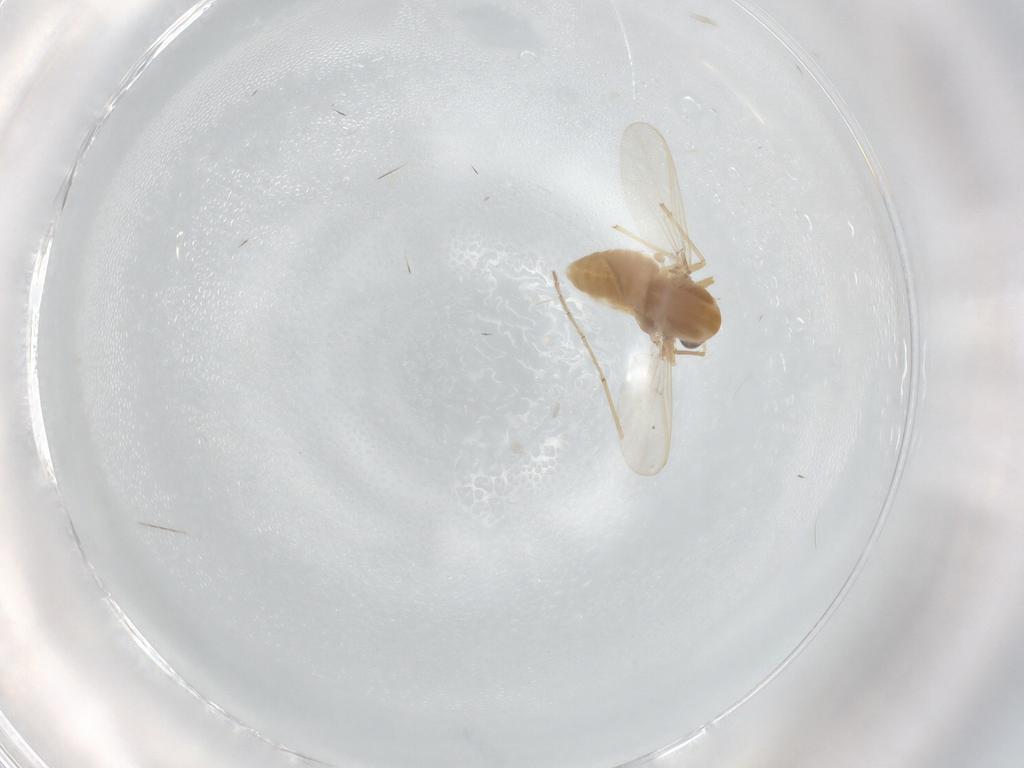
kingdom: Animalia
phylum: Arthropoda
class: Insecta
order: Diptera
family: Chironomidae
